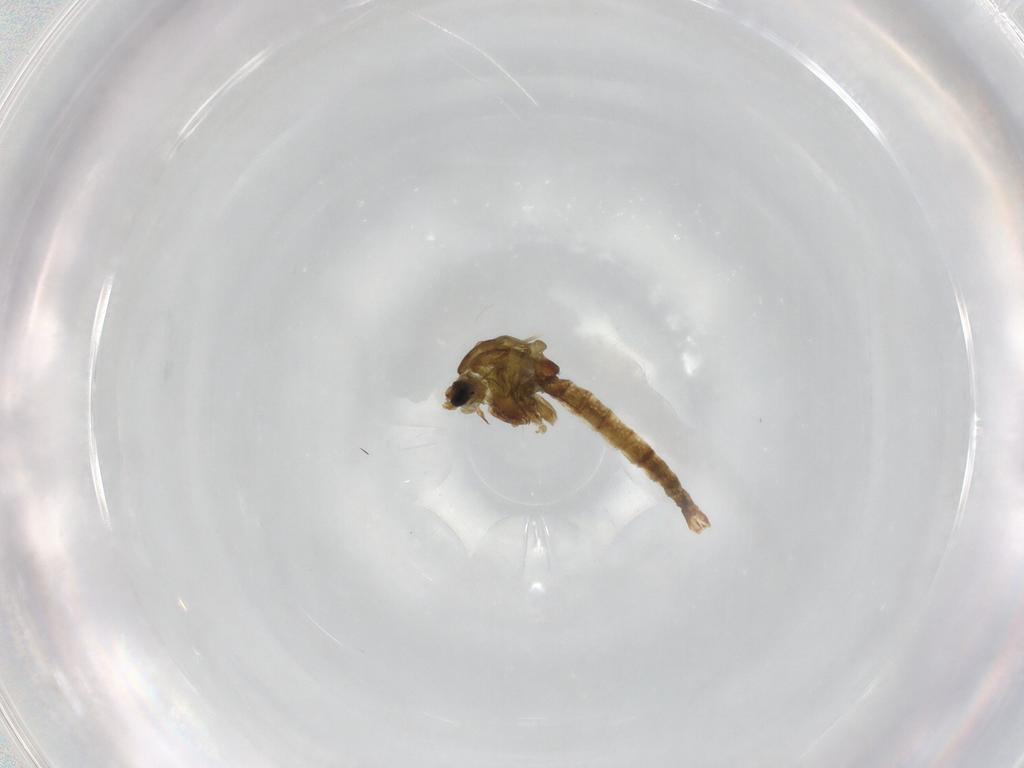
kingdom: Animalia
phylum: Arthropoda
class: Insecta
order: Diptera
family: Chironomidae
